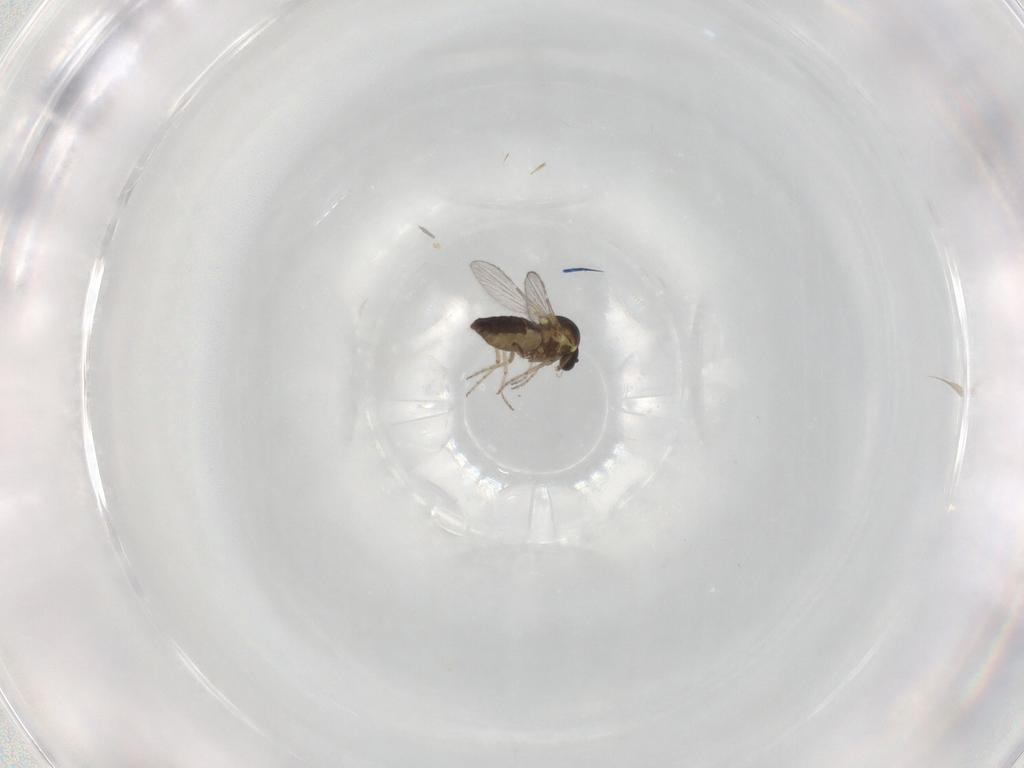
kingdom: Animalia
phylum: Arthropoda
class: Insecta
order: Diptera
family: Ceratopogonidae
